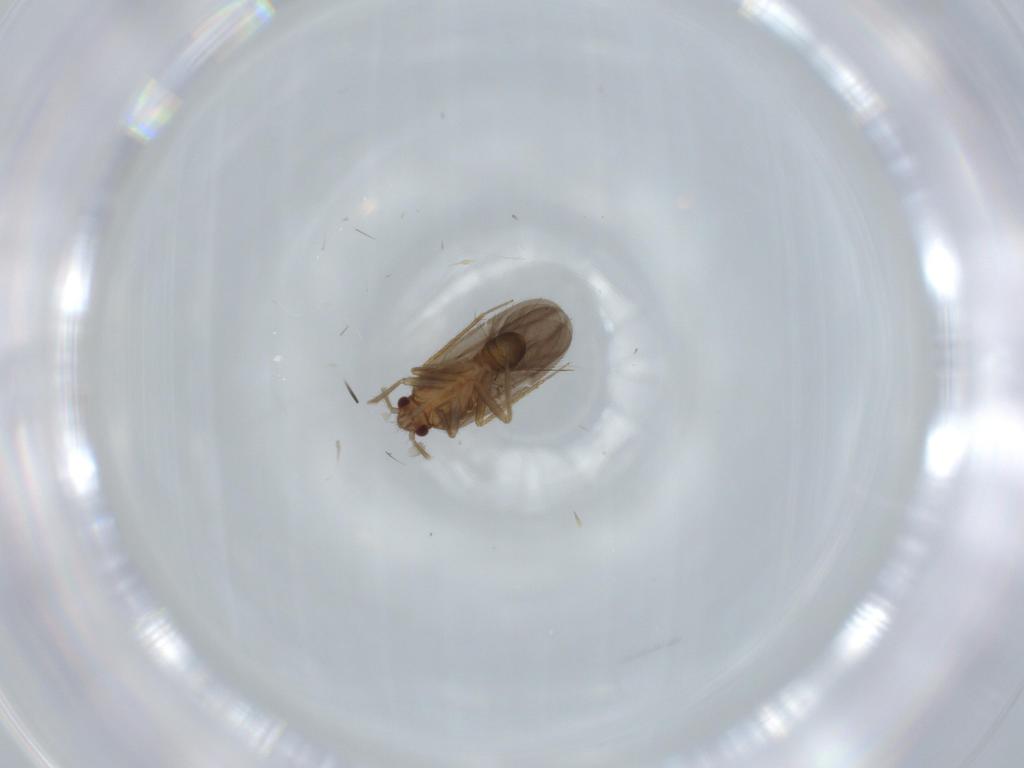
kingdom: Animalia
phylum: Arthropoda
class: Insecta
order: Hemiptera
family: Ceratocombidae
